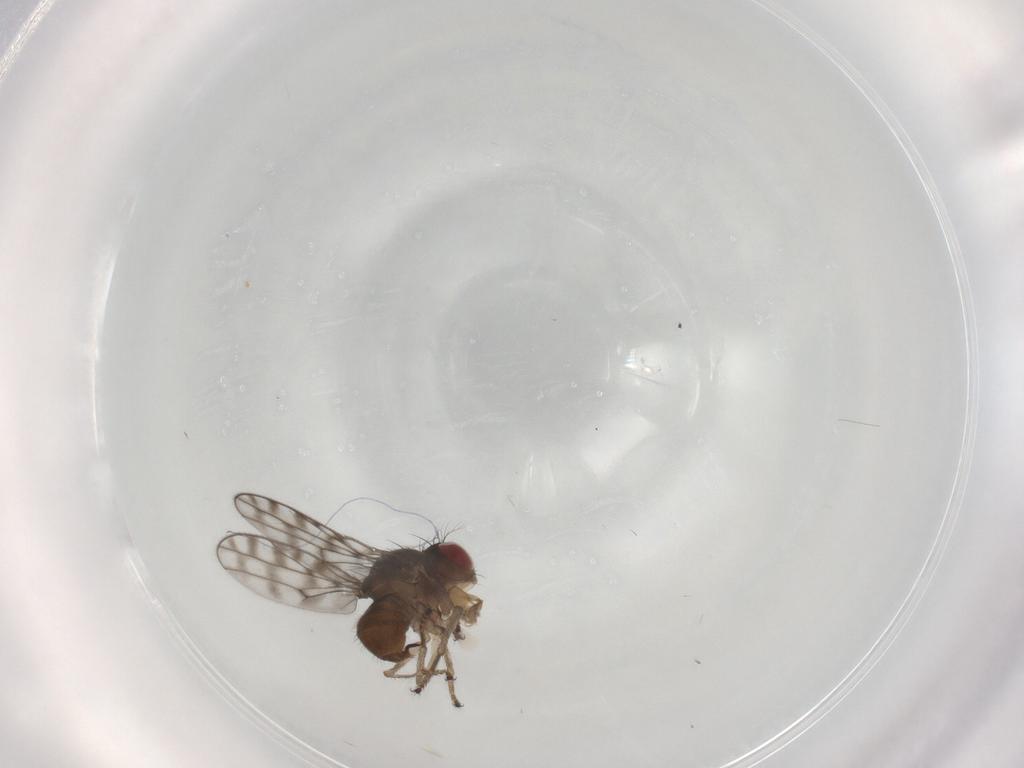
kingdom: Animalia
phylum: Arthropoda
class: Insecta
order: Diptera
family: Ephydridae
